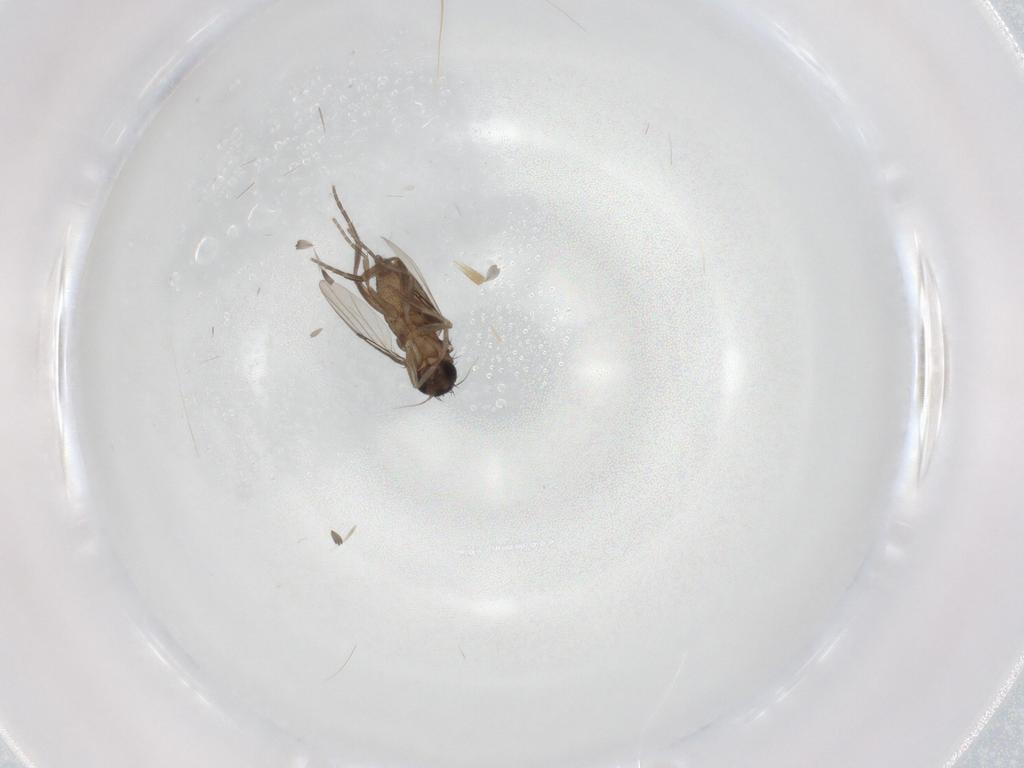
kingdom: Animalia
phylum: Arthropoda
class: Insecta
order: Diptera
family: Phoridae
